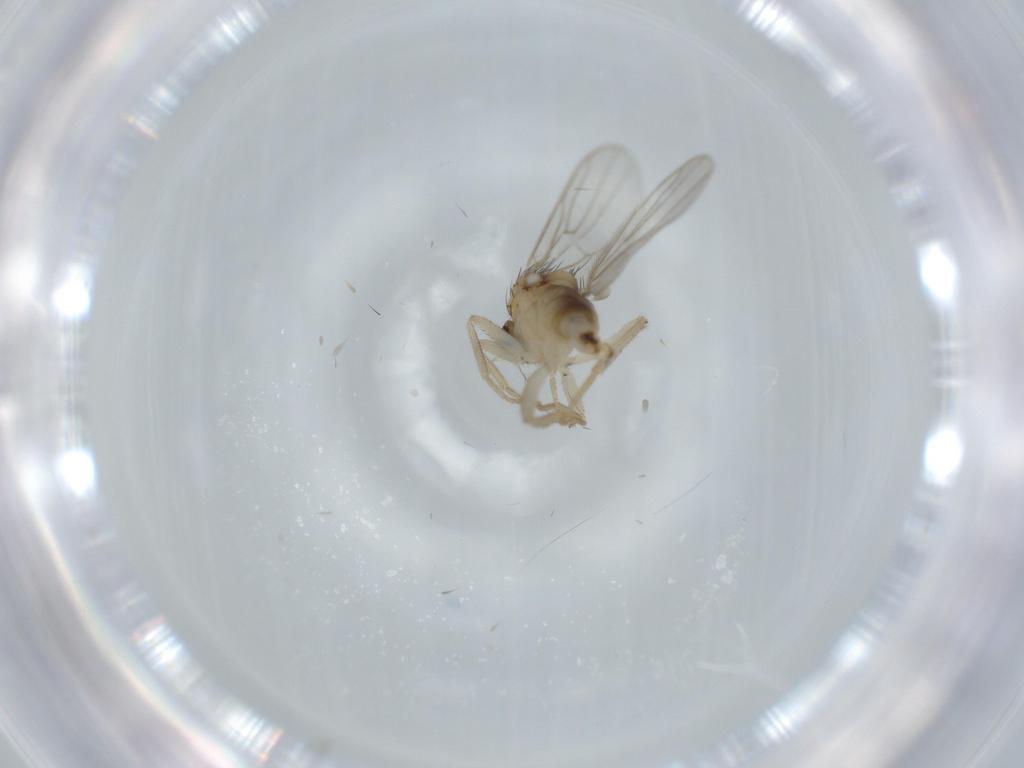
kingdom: Animalia
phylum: Arthropoda
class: Insecta
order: Diptera
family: Hybotidae
